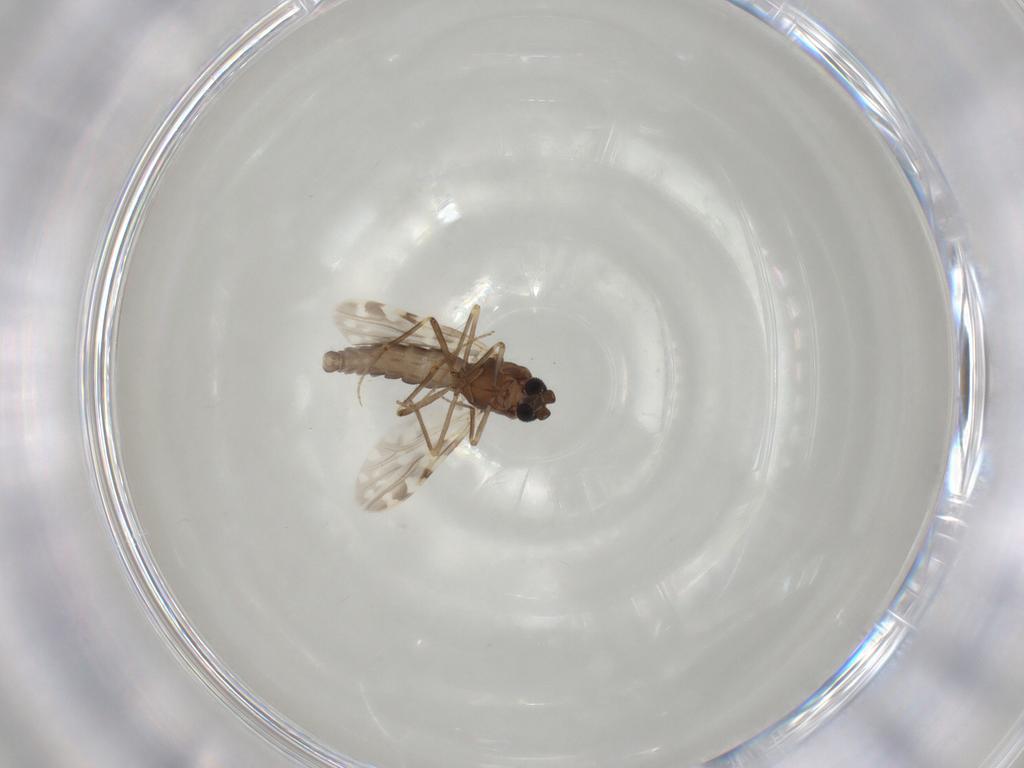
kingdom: Animalia
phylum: Arthropoda
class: Insecta
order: Diptera
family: Chironomidae
